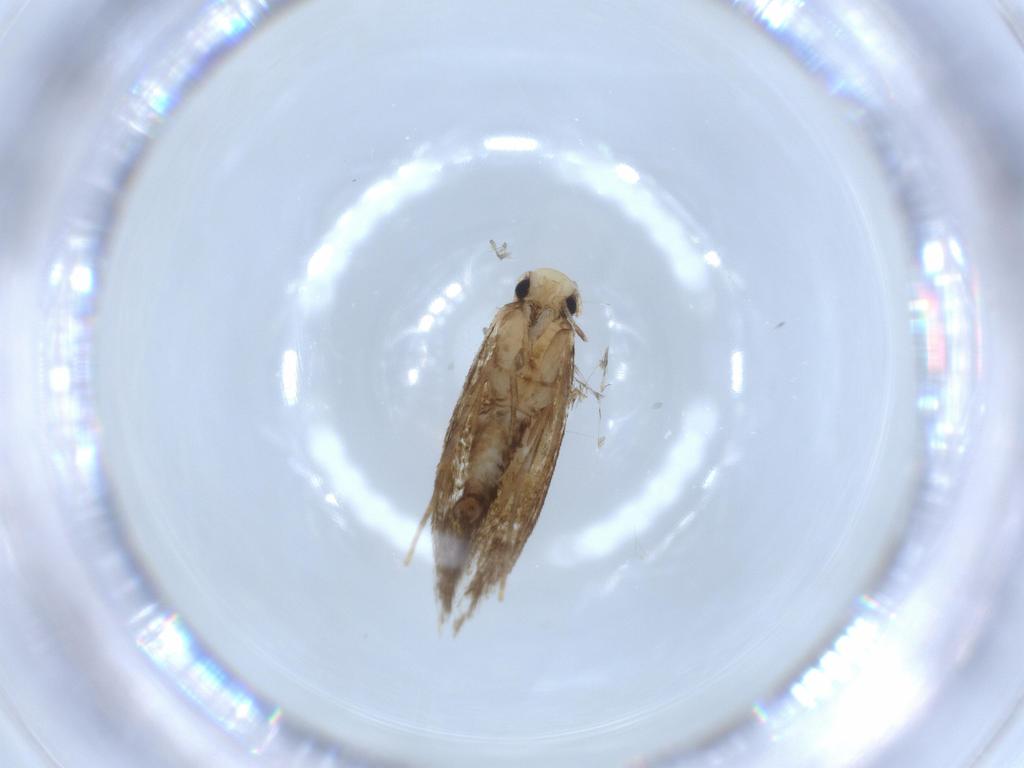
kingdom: Animalia
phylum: Arthropoda
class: Insecta
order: Lepidoptera
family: Tineidae
